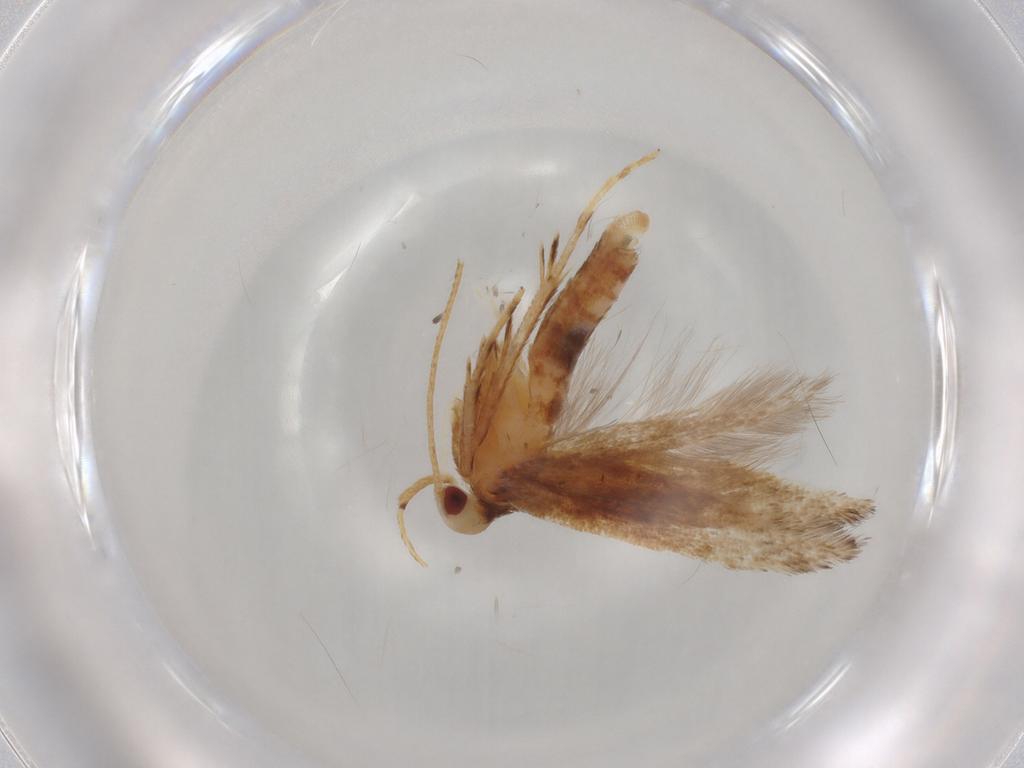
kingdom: Animalia
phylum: Arthropoda
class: Insecta
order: Lepidoptera
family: Cosmopterigidae
